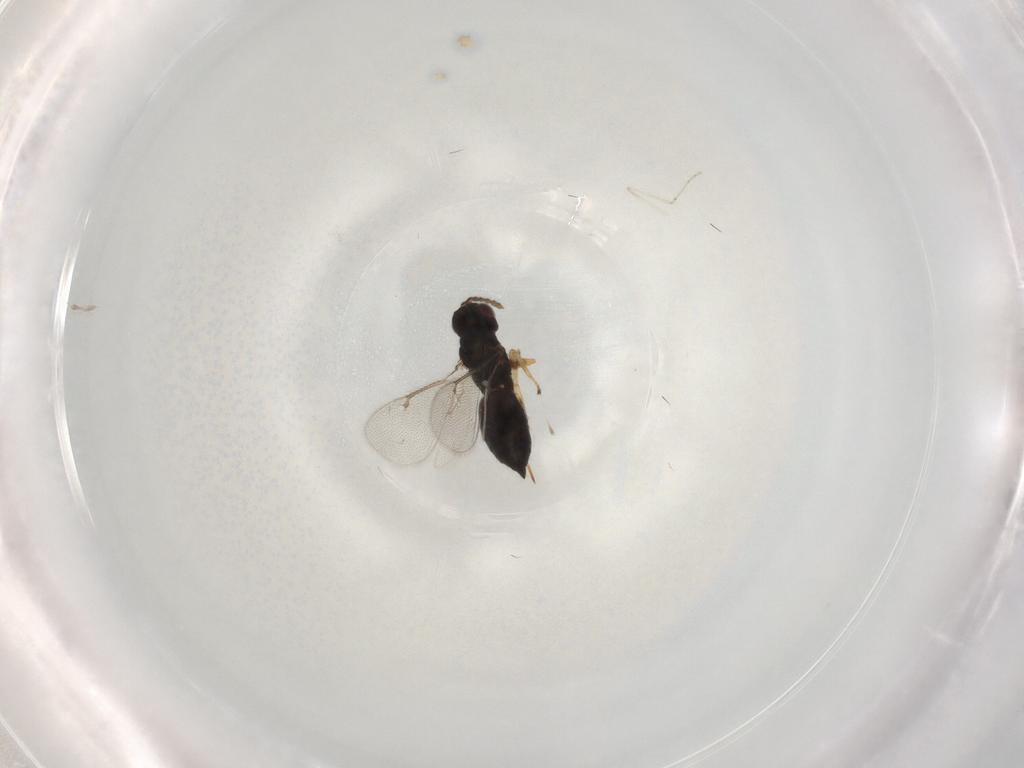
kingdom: Animalia
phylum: Arthropoda
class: Insecta
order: Hymenoptera
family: Eulophidae
